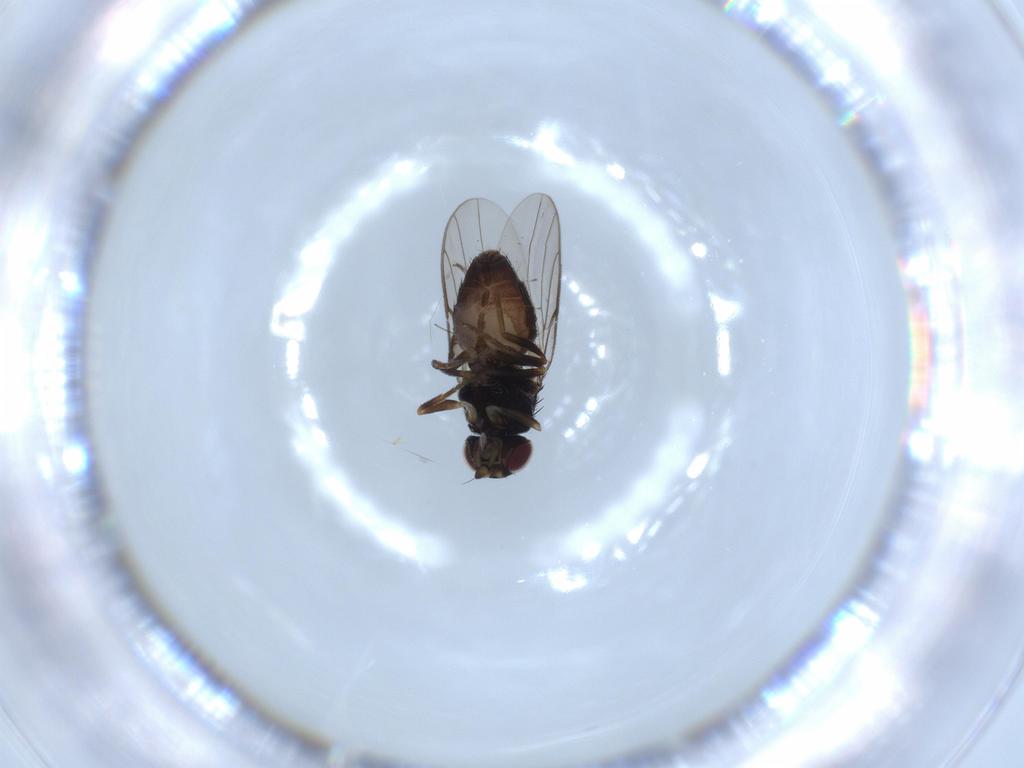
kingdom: Animalia
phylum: Arthropoda
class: Insecta
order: Diptera
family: Chloropidae
